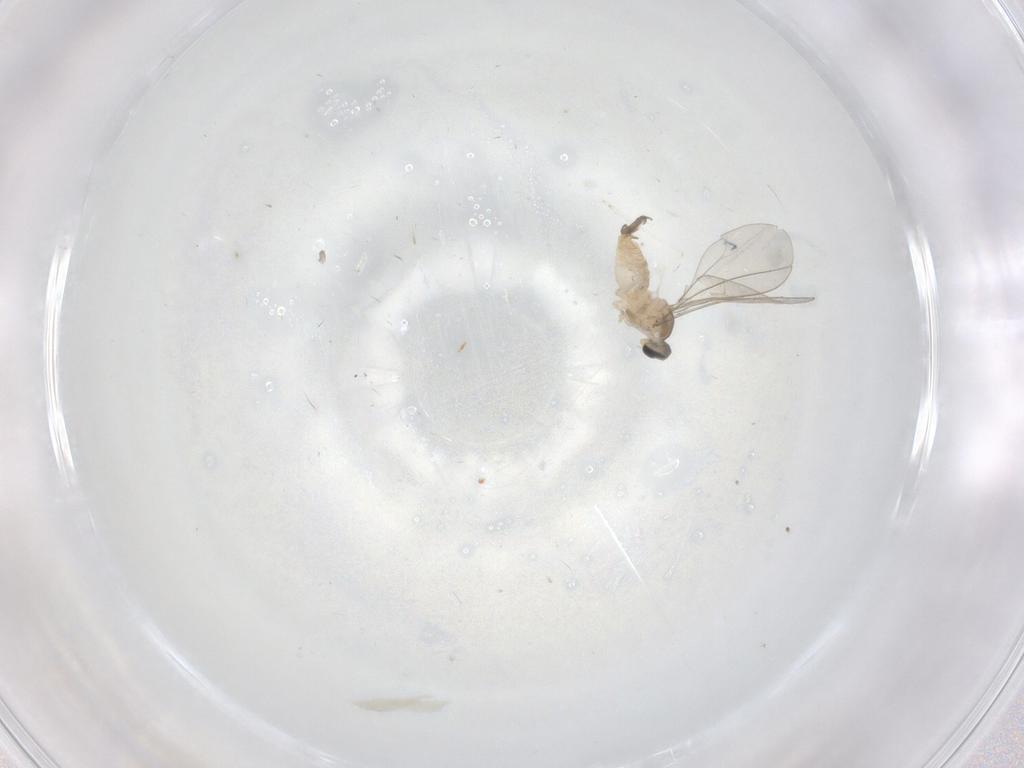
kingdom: Animalia
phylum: Arthropoda
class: Insecta
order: Diptera
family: Cecidomyiidae
